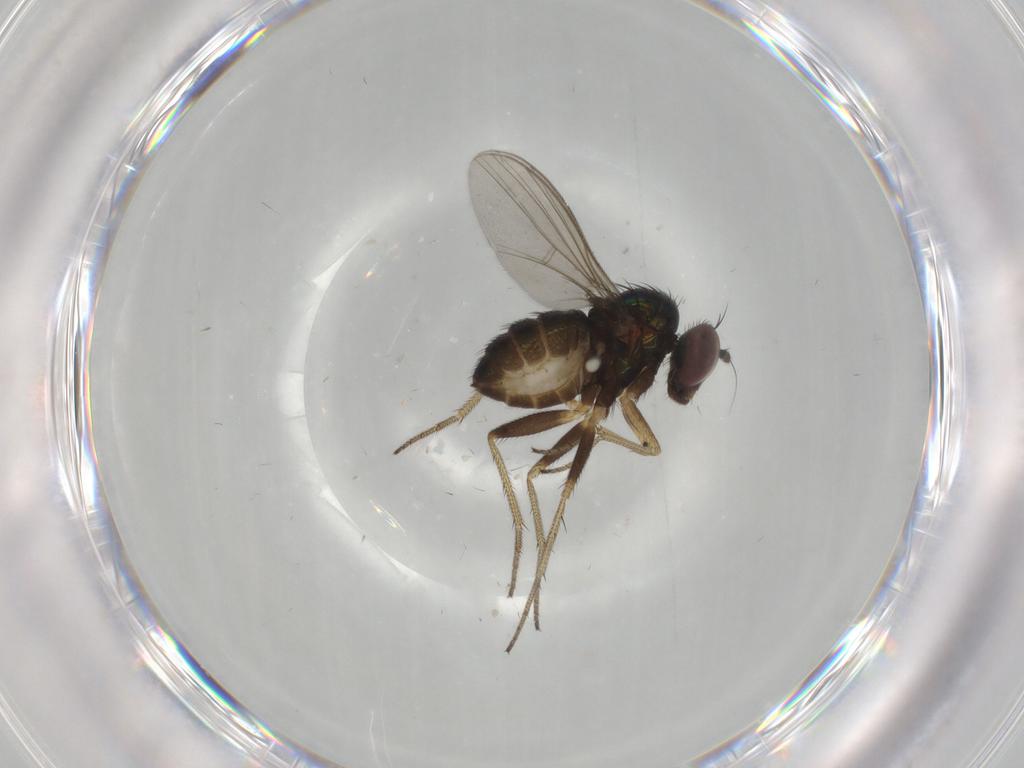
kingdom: Animalia
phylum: Arthropoda
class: Insecta
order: Diptera
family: Dolichopodidae
